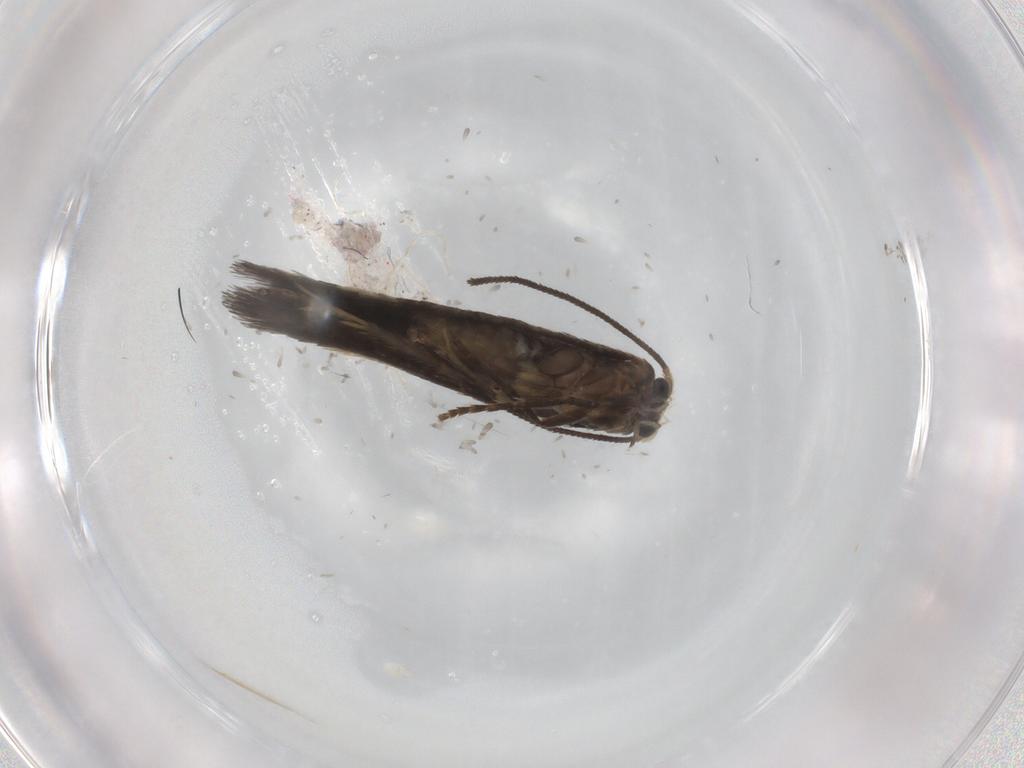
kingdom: Animalia
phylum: Arthropoda
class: Insecta
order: Lepidoptera
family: Nepticulidae
